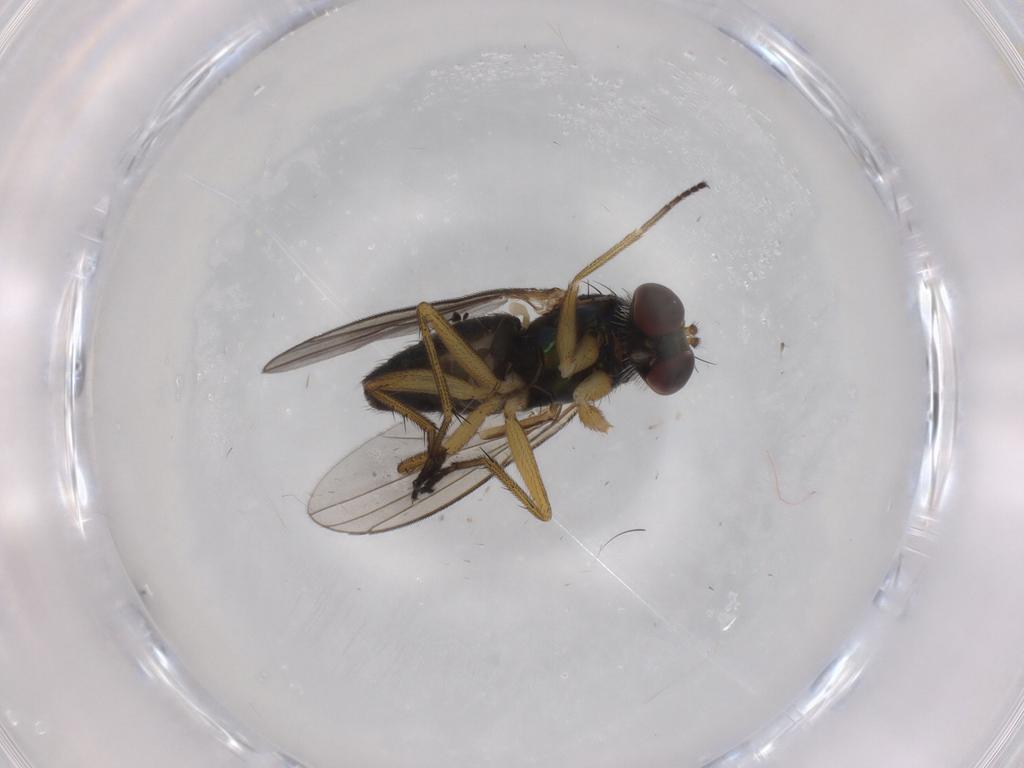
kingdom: Animalia
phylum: Arthropoda
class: Insecta
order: Diptera
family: Dolichopodidae
